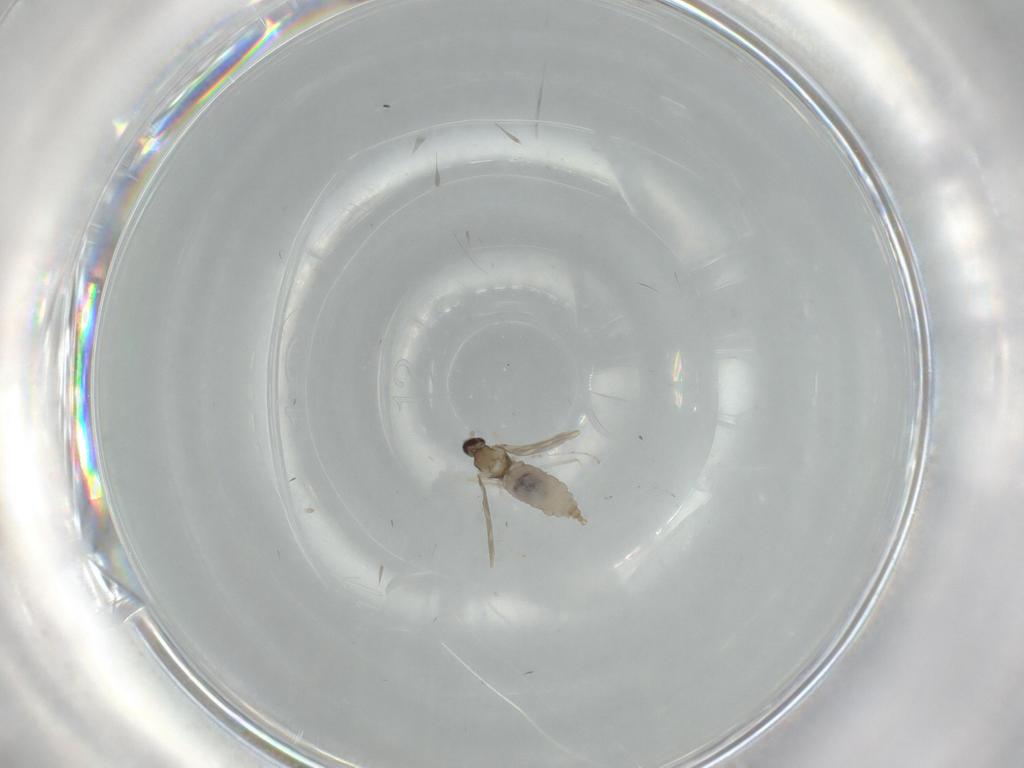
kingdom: Animalia
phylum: Arthropoda
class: Insecta
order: Diptera
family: Cecidomyiidae
